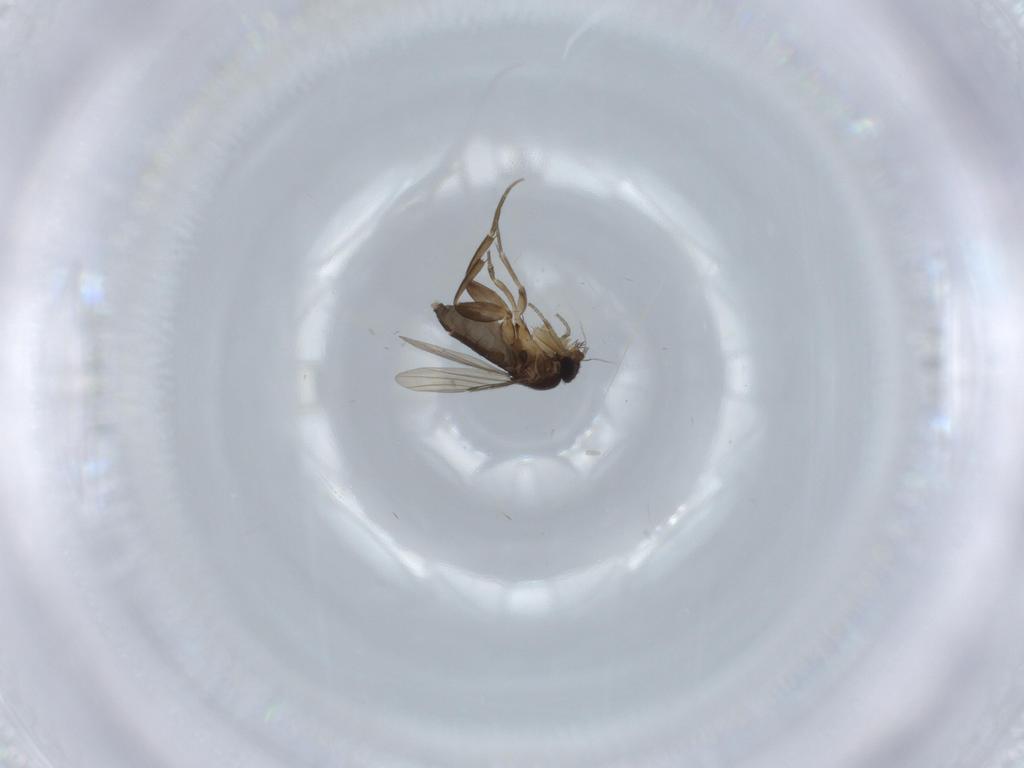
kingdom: Animalia
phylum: Arthropoda
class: Insecta
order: Diptera
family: Phoridae
